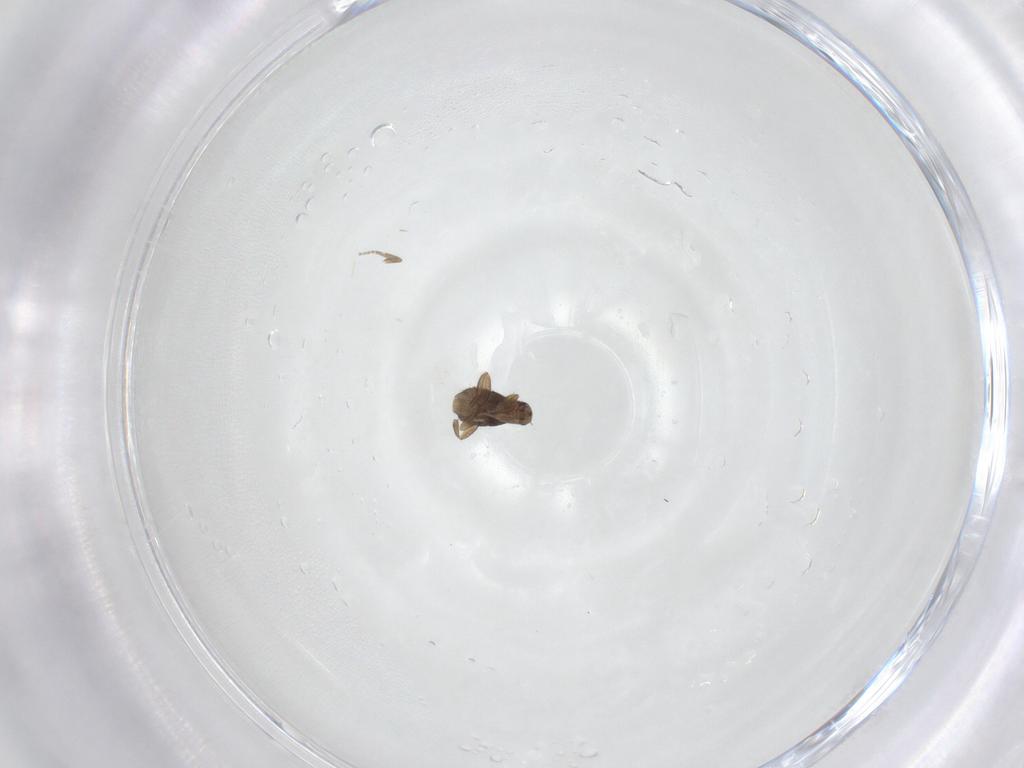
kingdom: Animalia
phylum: Arthropoda
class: Insecta
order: Diptera
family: Phoridae
